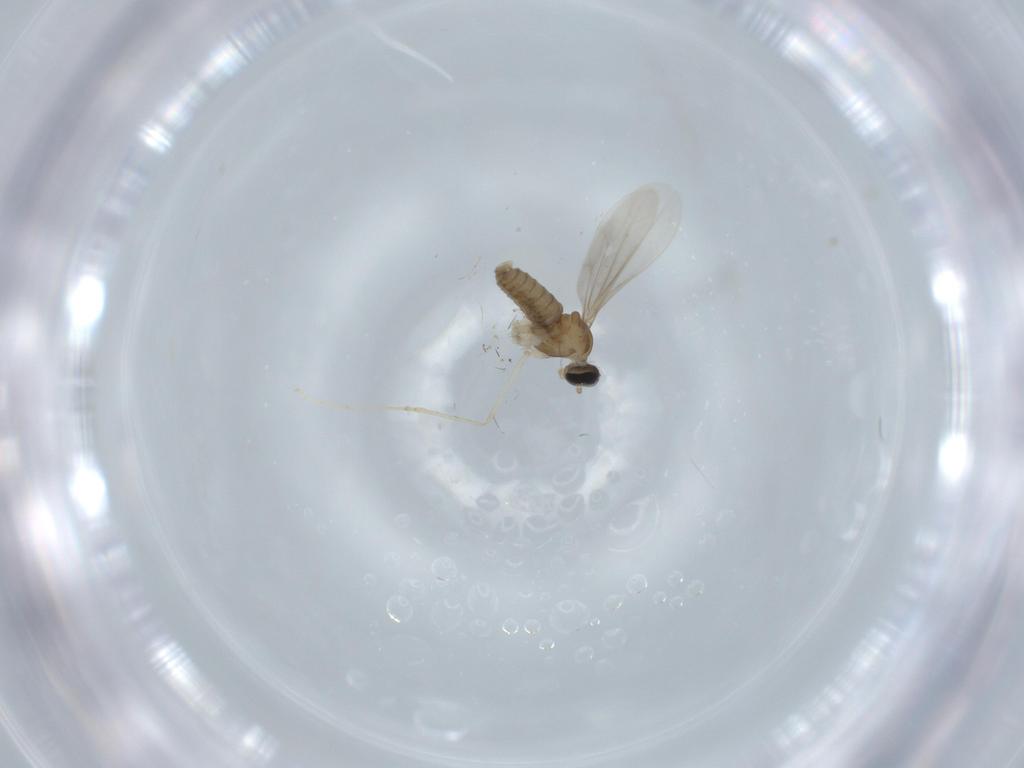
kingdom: Animalia
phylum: Arthropoda
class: Insecta
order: Diptera
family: Cecidomyiidae
